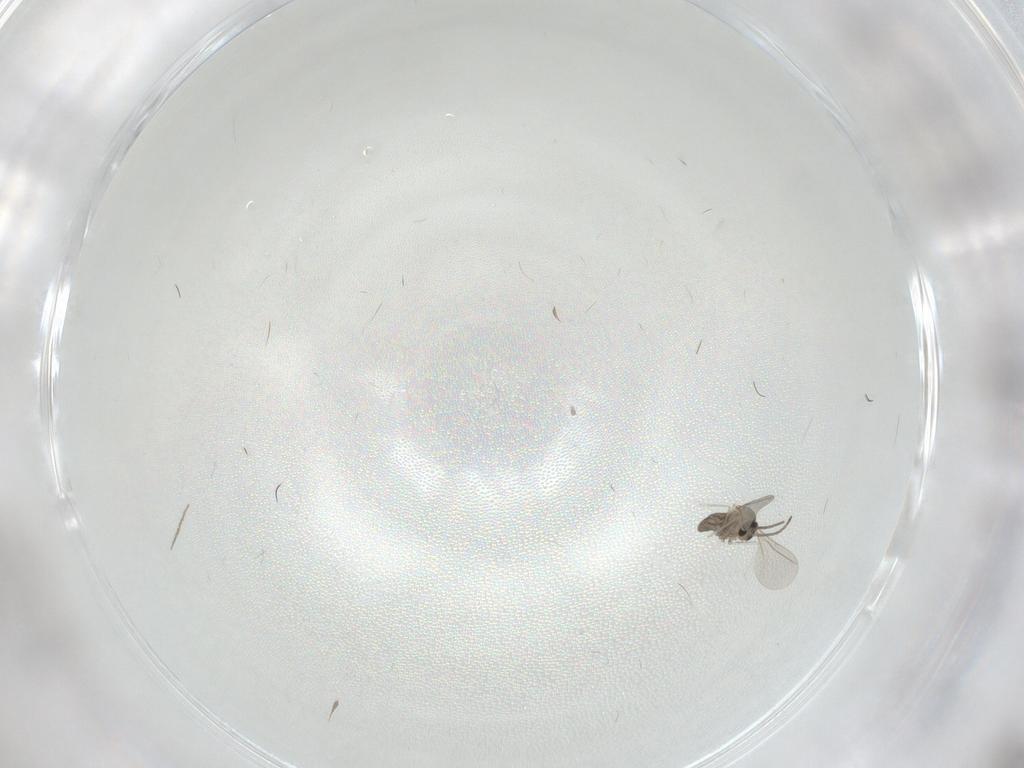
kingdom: Animalia
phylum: Arthropoda
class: Insecta
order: Diptera
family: Cecidomyiidae
